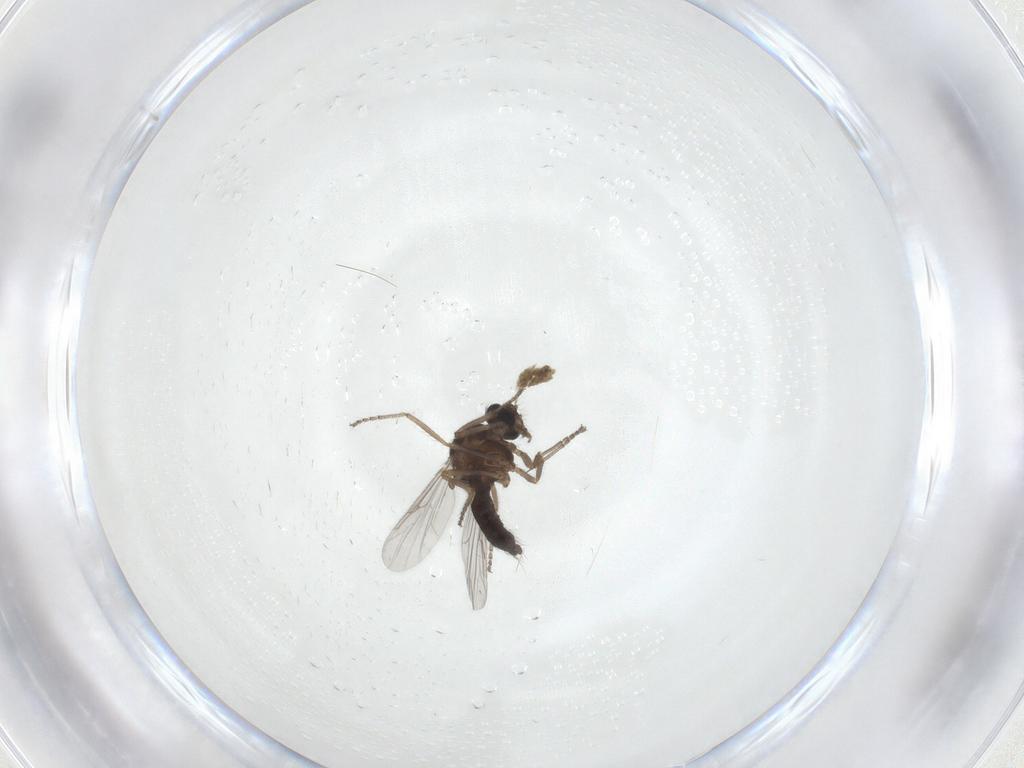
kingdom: Animalia
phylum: Arthropoda
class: Insecta
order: Diptera
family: Ceratopogonidae
